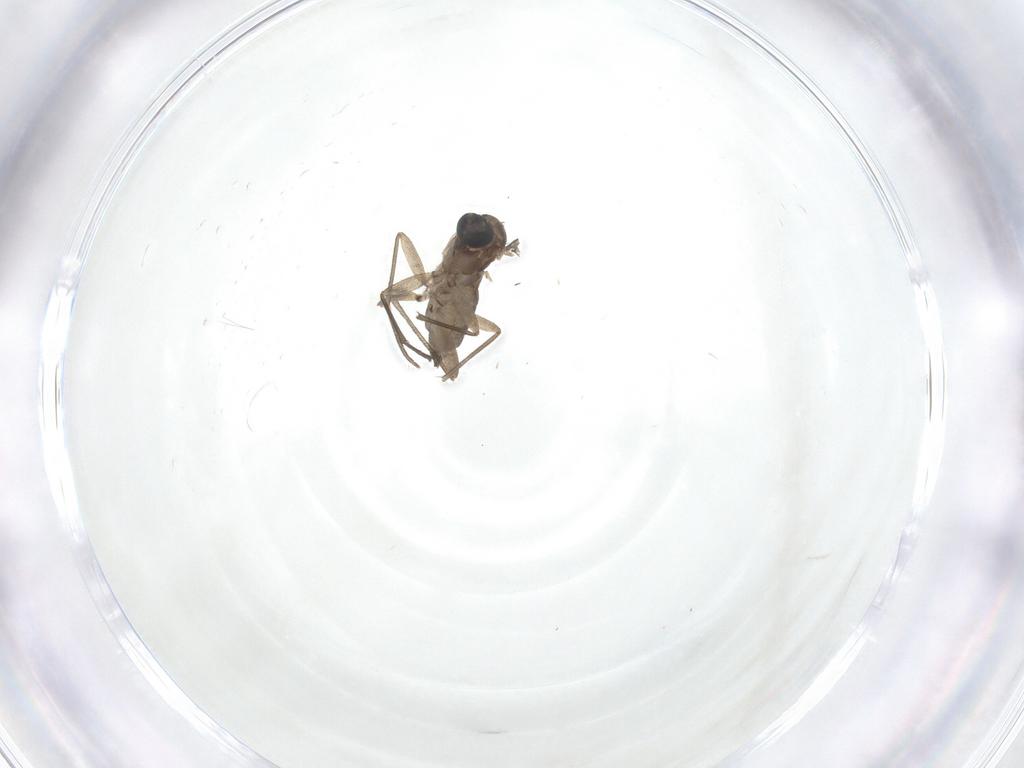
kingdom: Animalia
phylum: Arthropoda
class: Insecta
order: Diptera
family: Sciaridae
